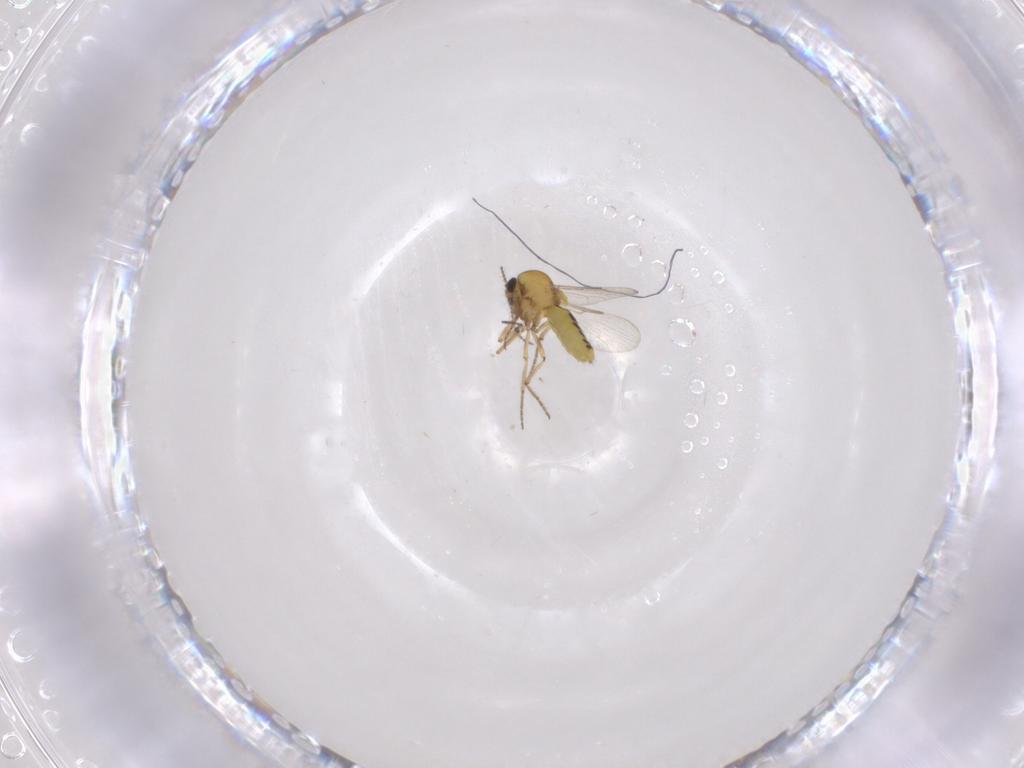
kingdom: Animalia
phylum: Arthropoda
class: Insecta
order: Diptera
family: Ceratopogonidae
